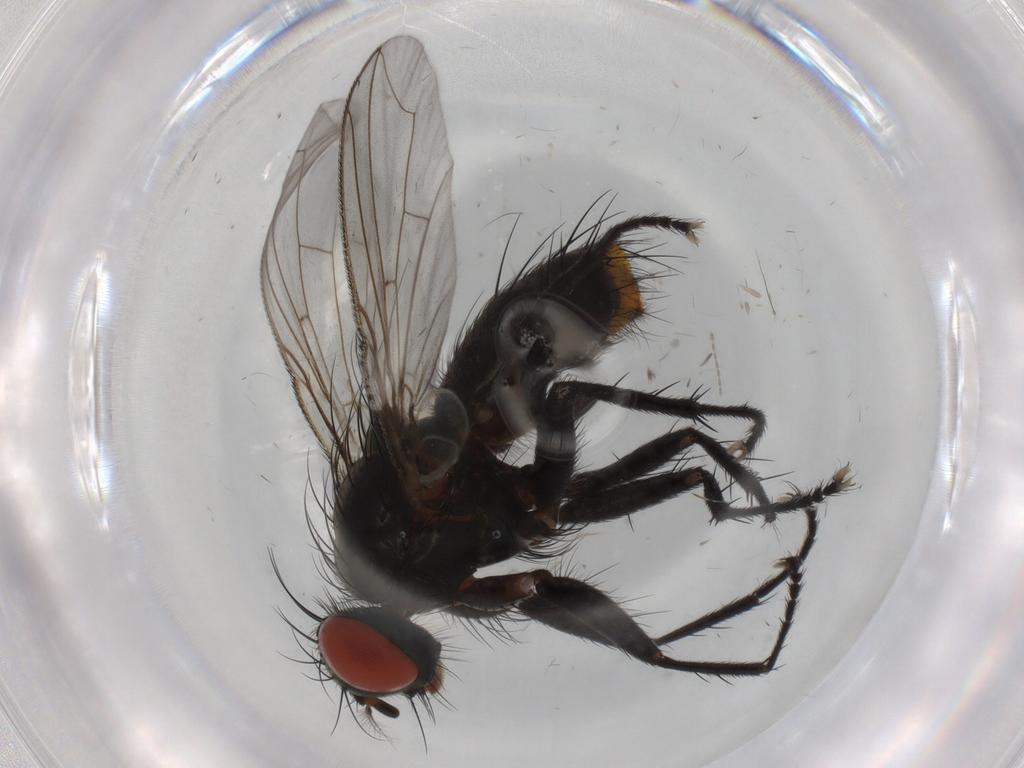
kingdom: Animalia
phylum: Arthropoda
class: Insecta
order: Diptera
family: Sarcophagidae
